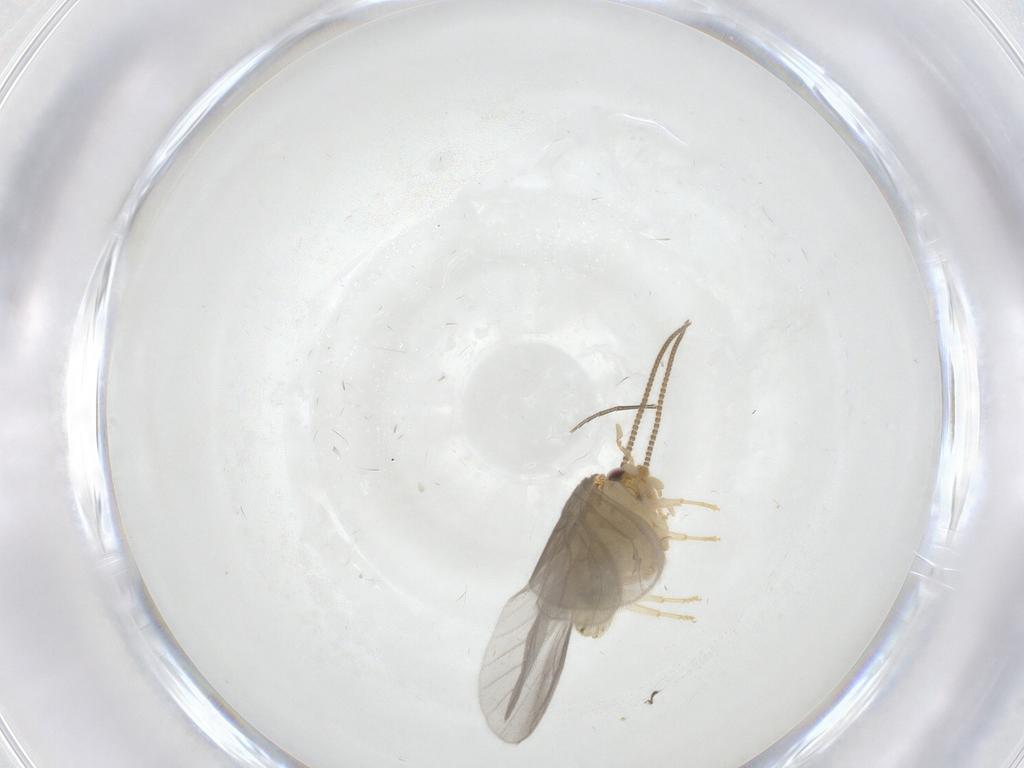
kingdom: Animalia
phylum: Arthropoda
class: Insecta
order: Neuroptera
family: Coniopterygidae
